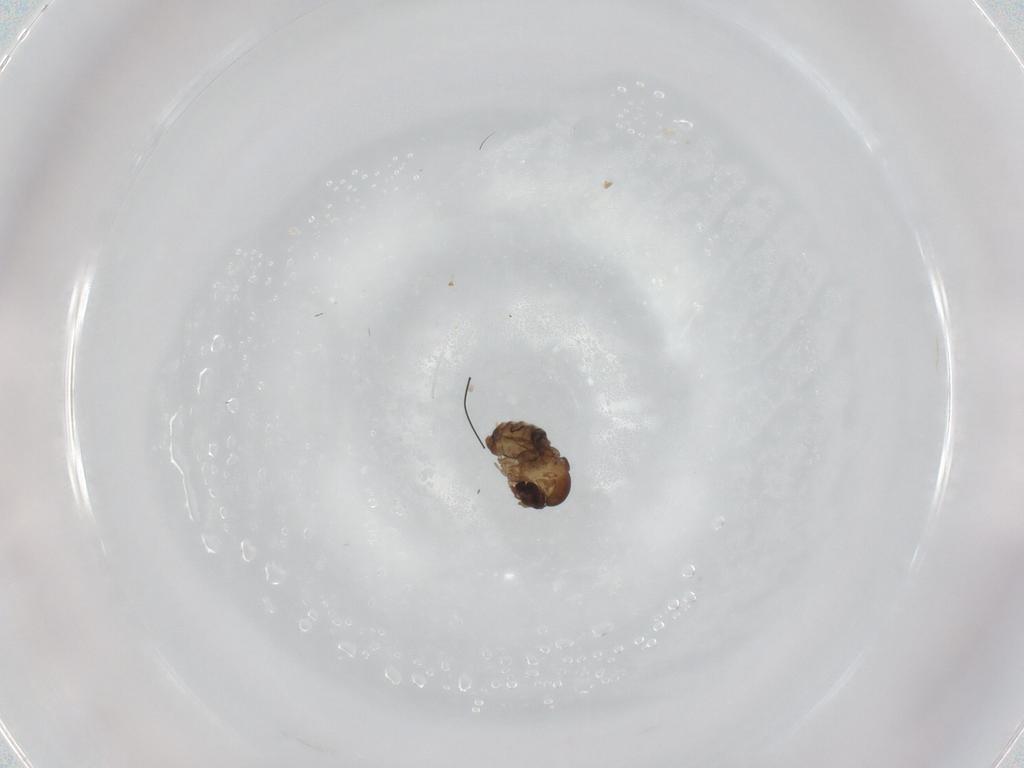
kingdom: Animalia
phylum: Arthropoda
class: Insecta
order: Diptera
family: Psychodidae
